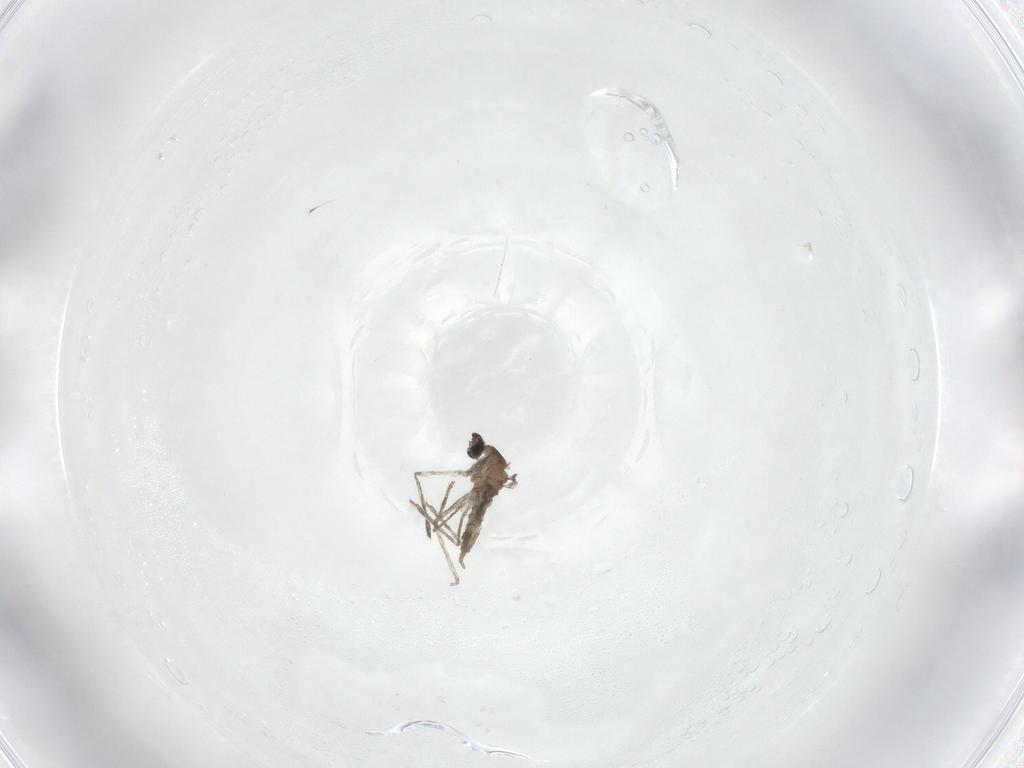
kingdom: Animalia
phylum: Arthropoda
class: Insecta
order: Diptera
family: Cecidomyiidae
